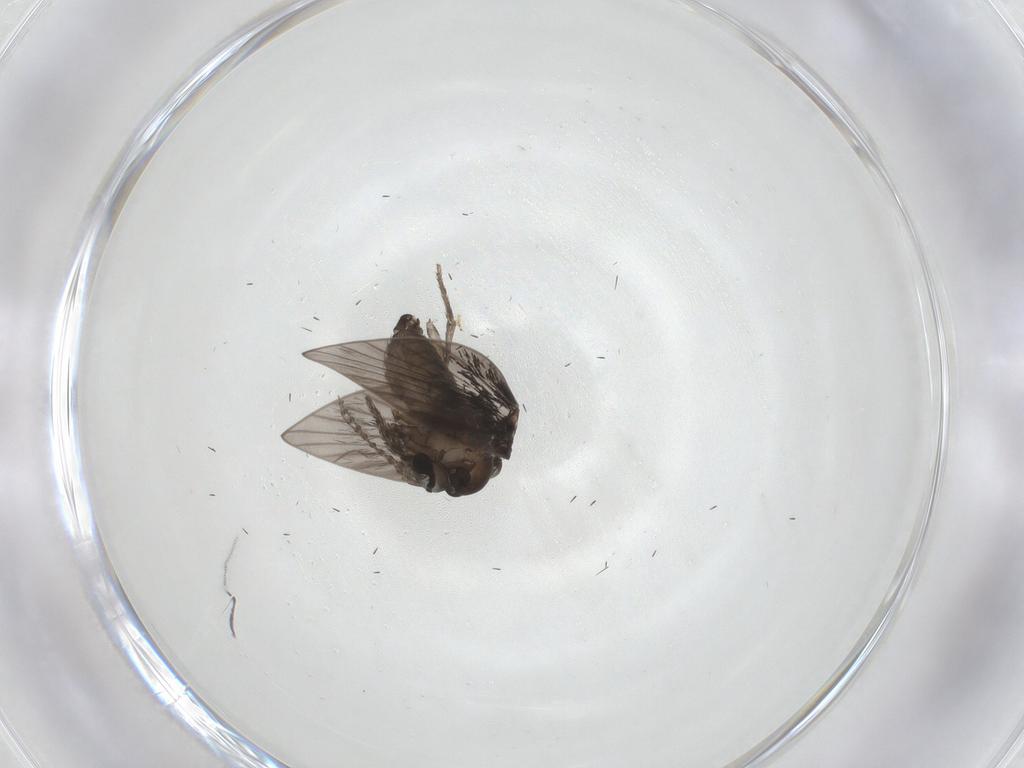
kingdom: Animalia
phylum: Arthropoda
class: Insecta
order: Diptera
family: Psychodidae
